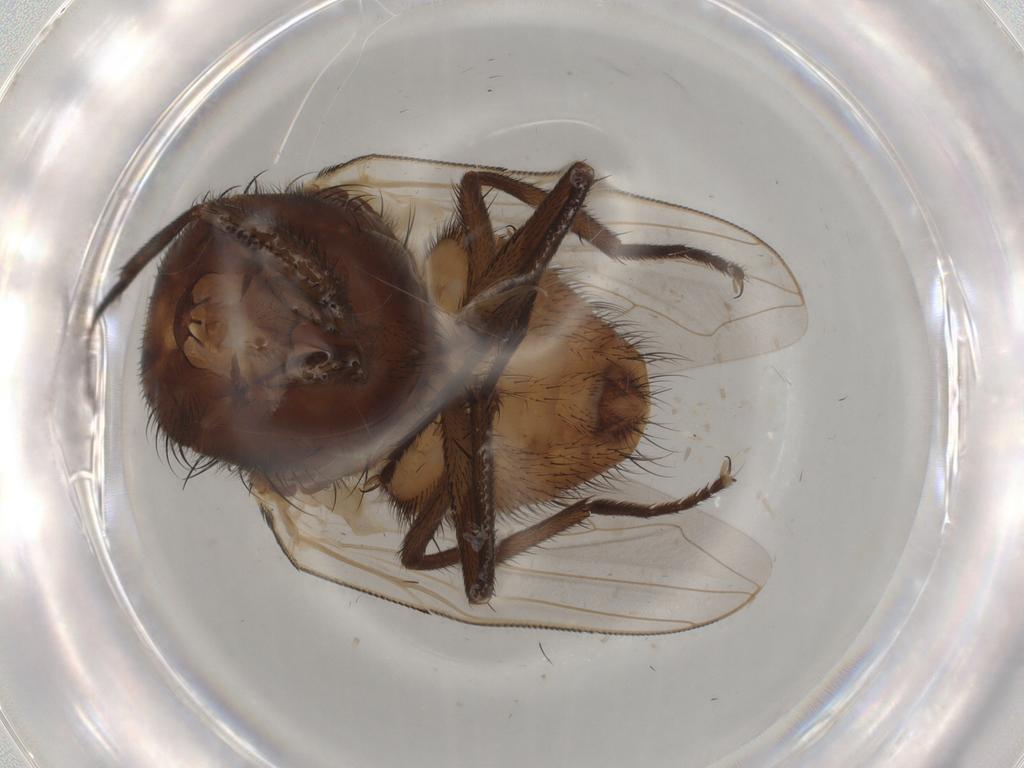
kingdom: Animalia
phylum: Arthropoda
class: Insecta
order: Diptera
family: Muscidae
